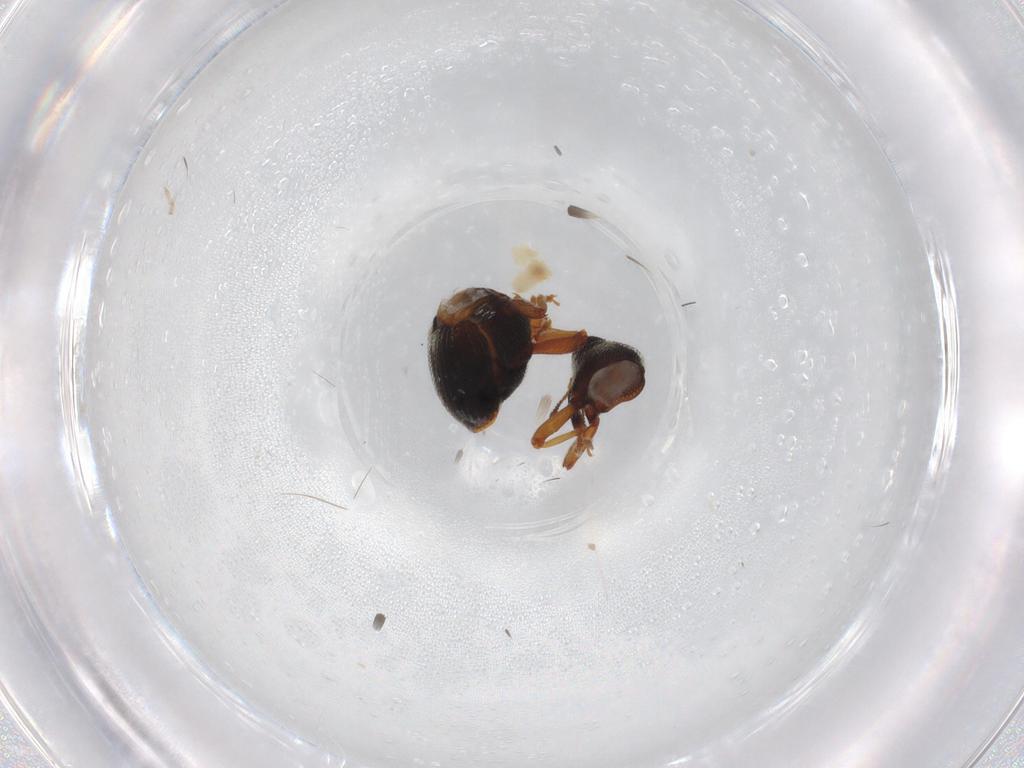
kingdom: Animalia
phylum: Arthropoda
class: Insecta
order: Coleoptera
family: Curculionidae
